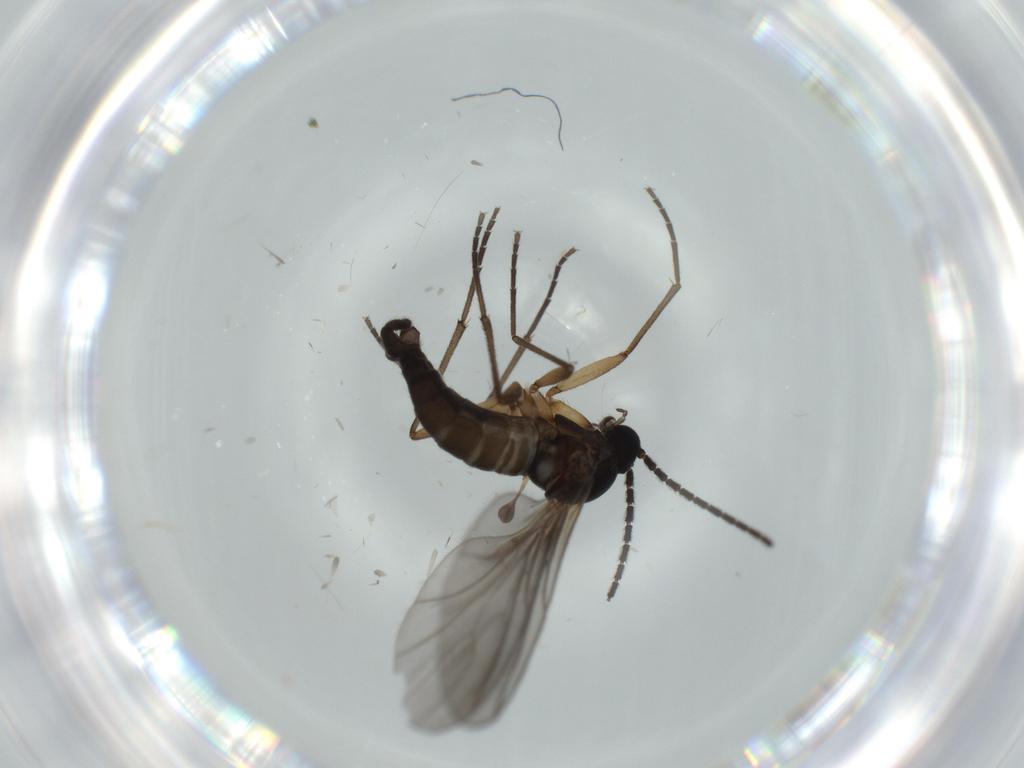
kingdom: Animalia
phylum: Arthropoda
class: Insecta
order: Diptera
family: Sciaridae
